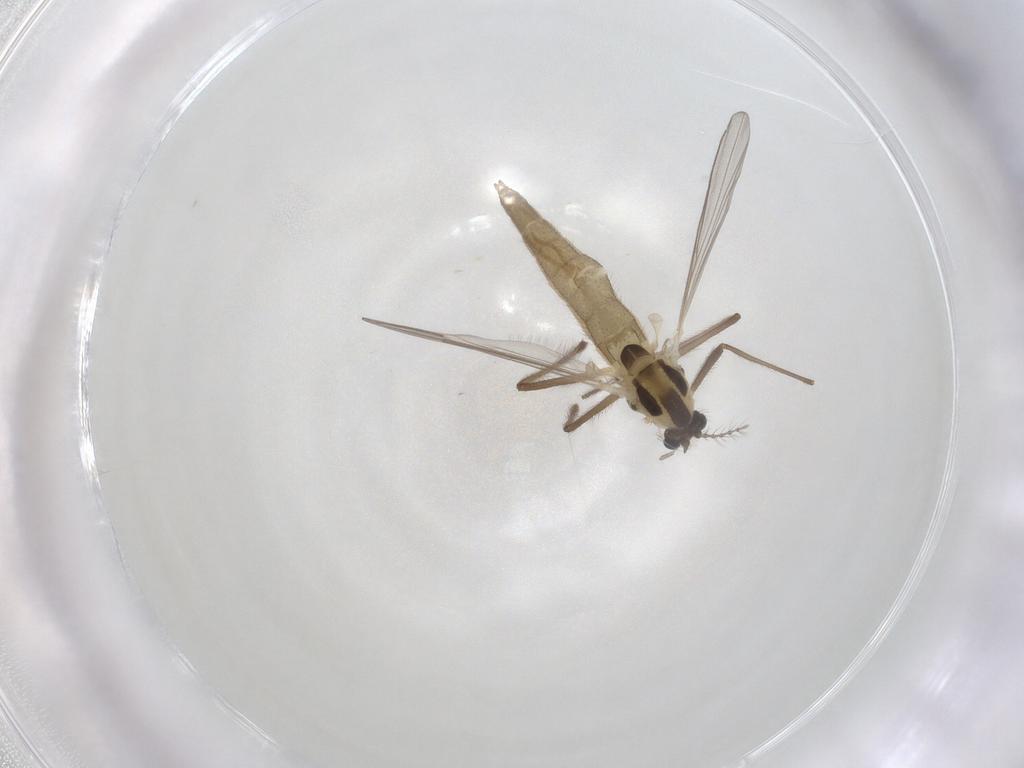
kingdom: Animalia
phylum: Arthropoda
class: Insecta
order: Diptera
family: Chironomidae
